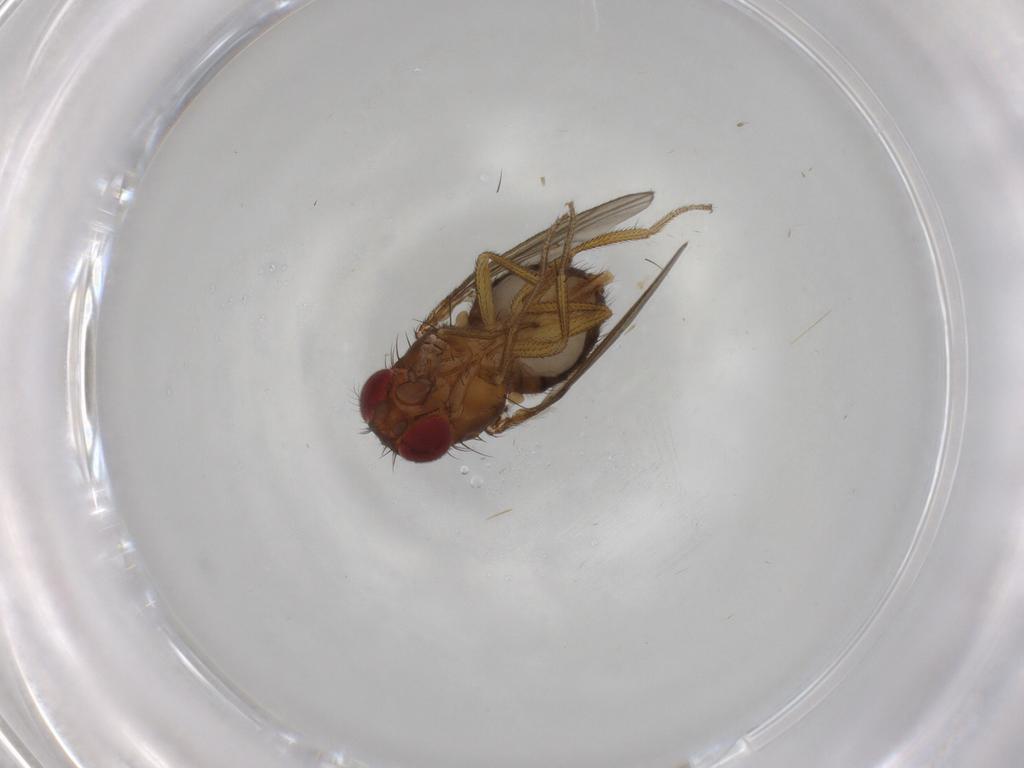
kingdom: Animalia
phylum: Arthropoda
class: Insecta
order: Diptera
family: Drosophilidae
